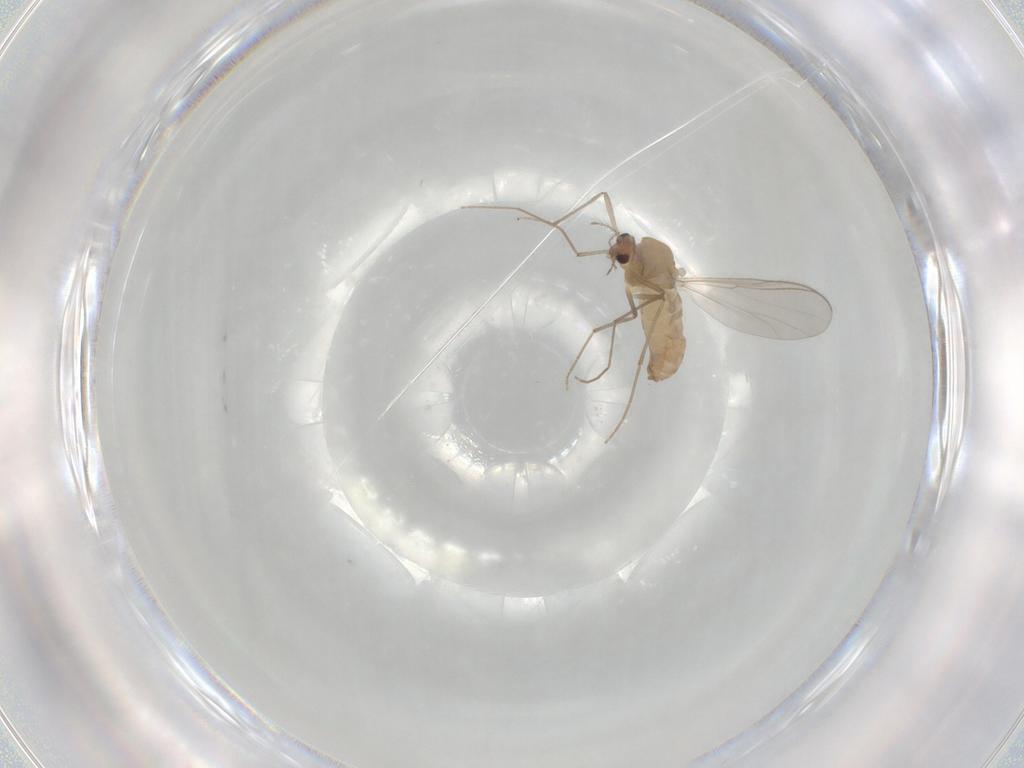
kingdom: Animalia
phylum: Arthropoda
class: Insecta
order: Diptera
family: Chironomidae
